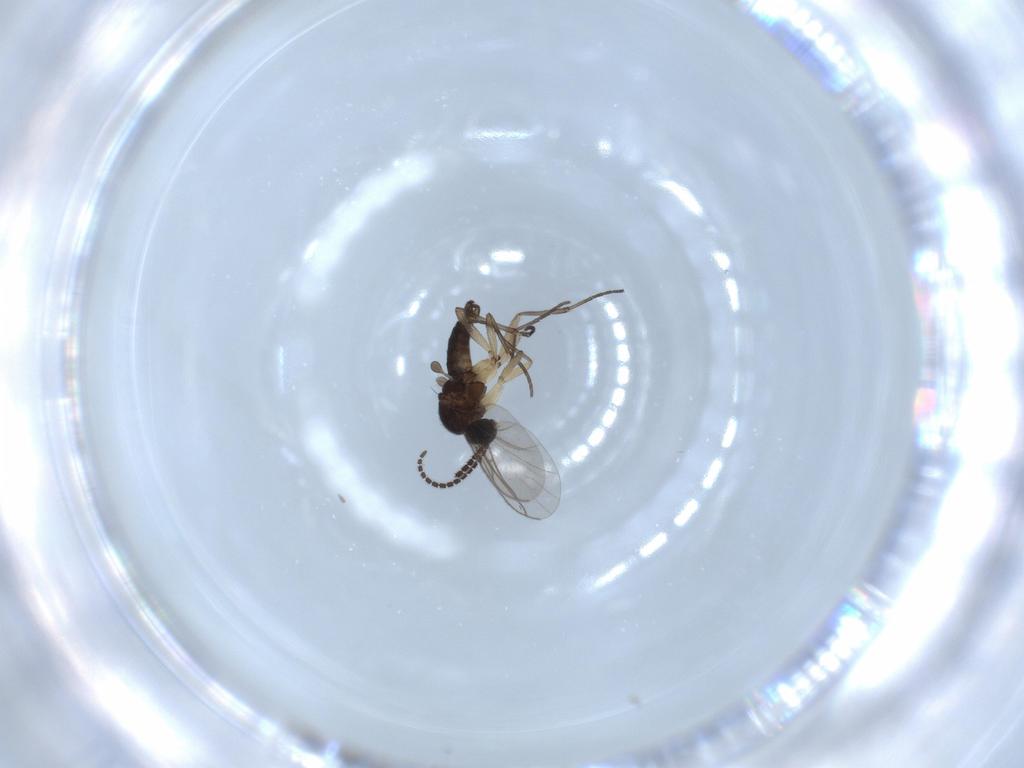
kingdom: Animalia
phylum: Arthropoda
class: Insecta
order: Diptera
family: Sciaridae
